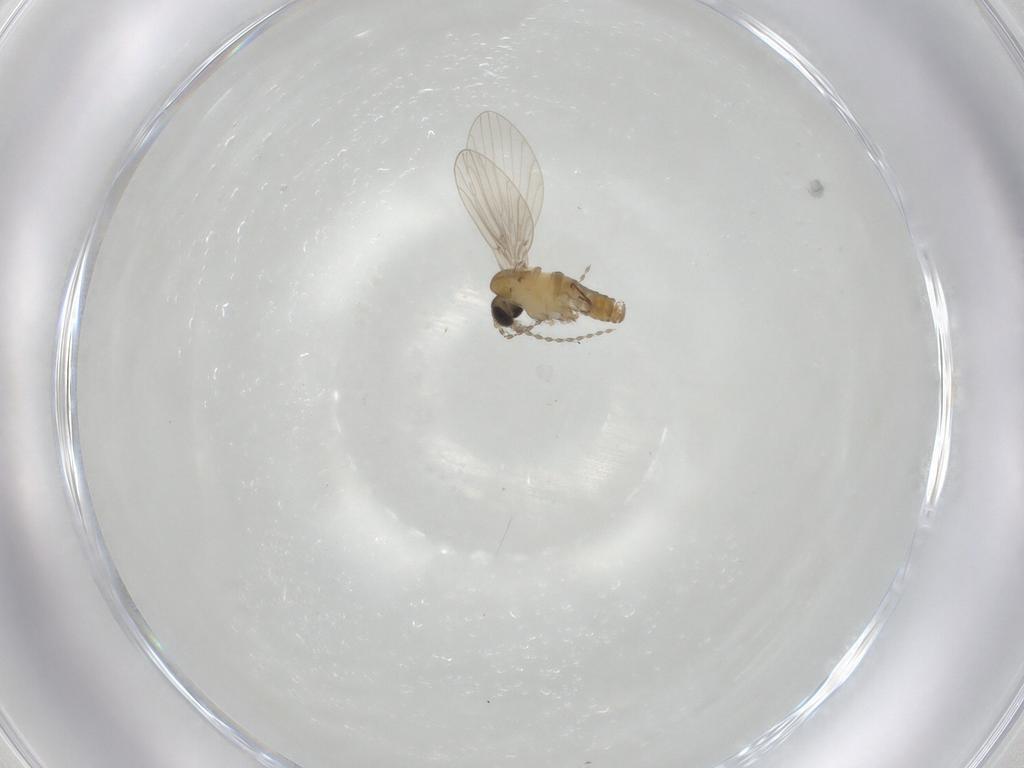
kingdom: Animalia
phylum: Arthropoda
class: Insecta
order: Diptera
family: Psychodidae
